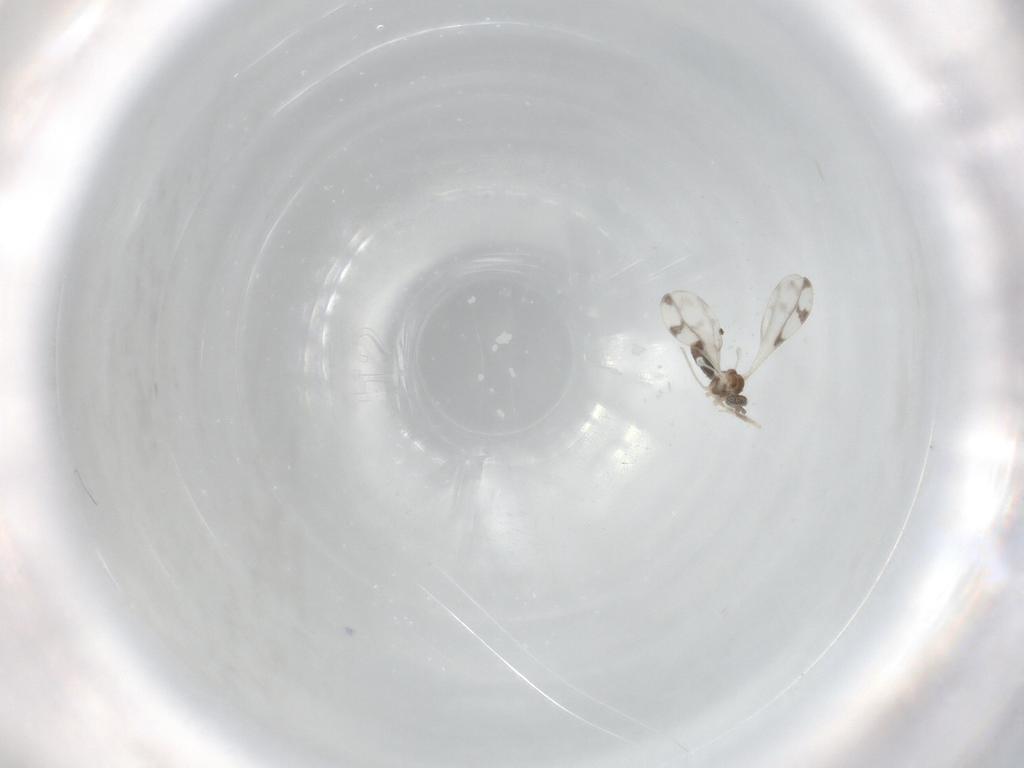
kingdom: Animalia
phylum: Arthropoda
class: Insecta
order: Diptera
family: Cecidomyiidae
